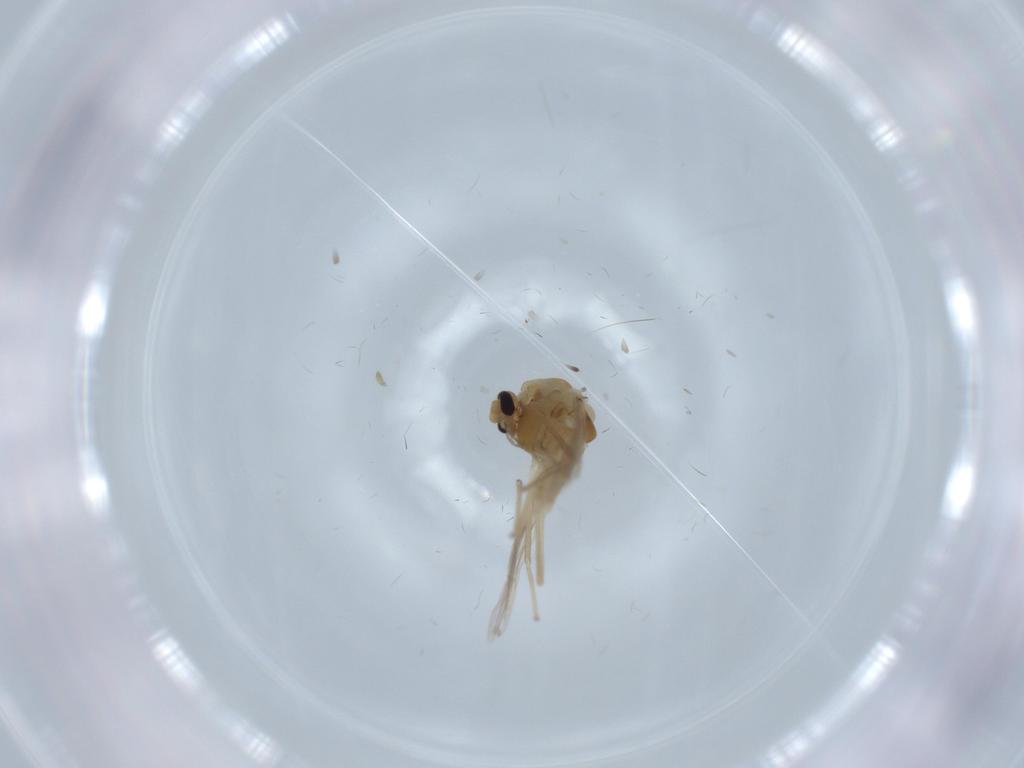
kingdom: Animalia
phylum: Arthropoda
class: Insecta
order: Diptera
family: Chironomidae
